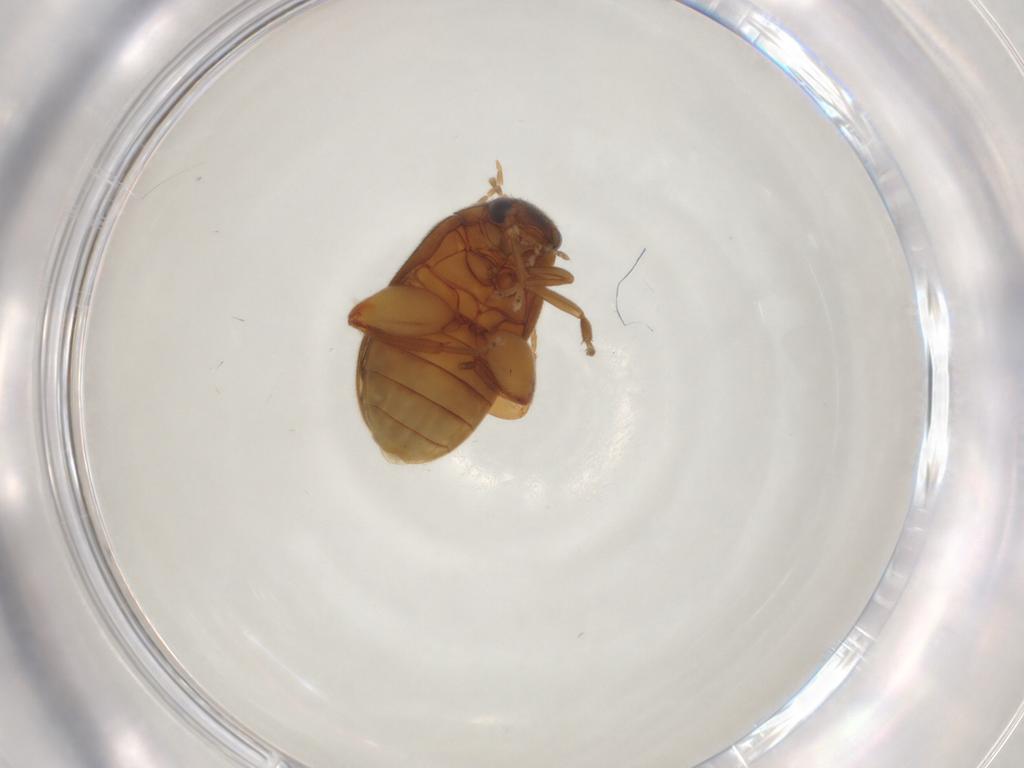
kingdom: Animalia
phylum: Arthropoda
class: Insecta
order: Coleoptera
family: Scirtidae
